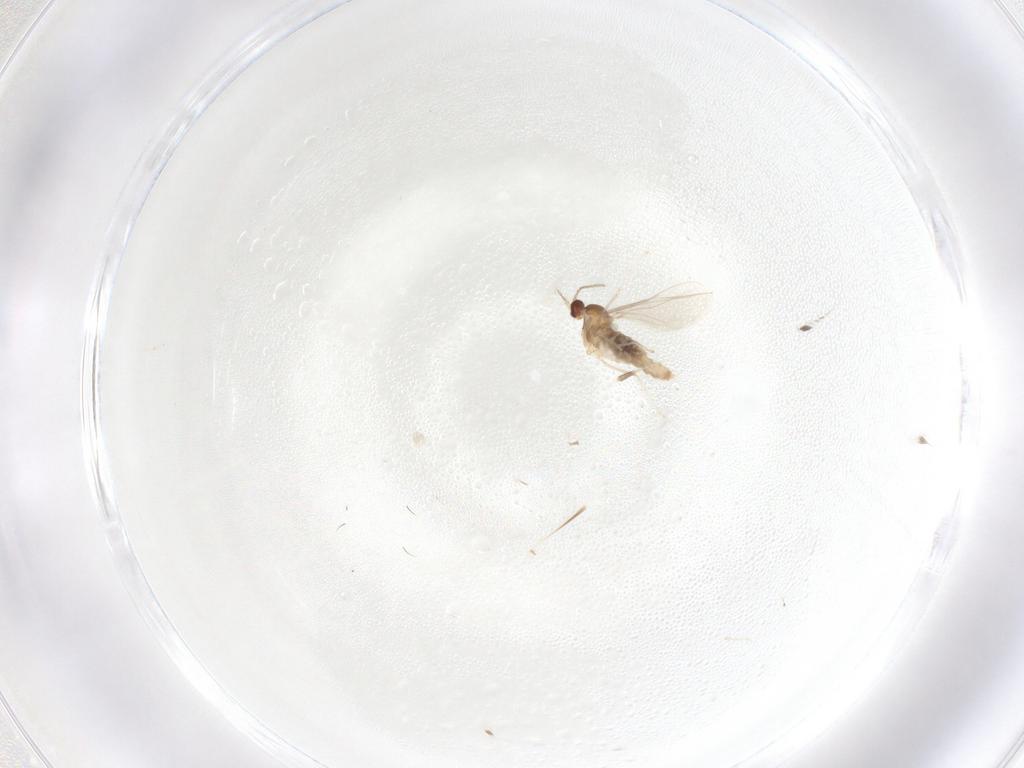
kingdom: Animalia
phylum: Arthropoda
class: Insecta
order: Diptera
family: Cecidomyiidae
